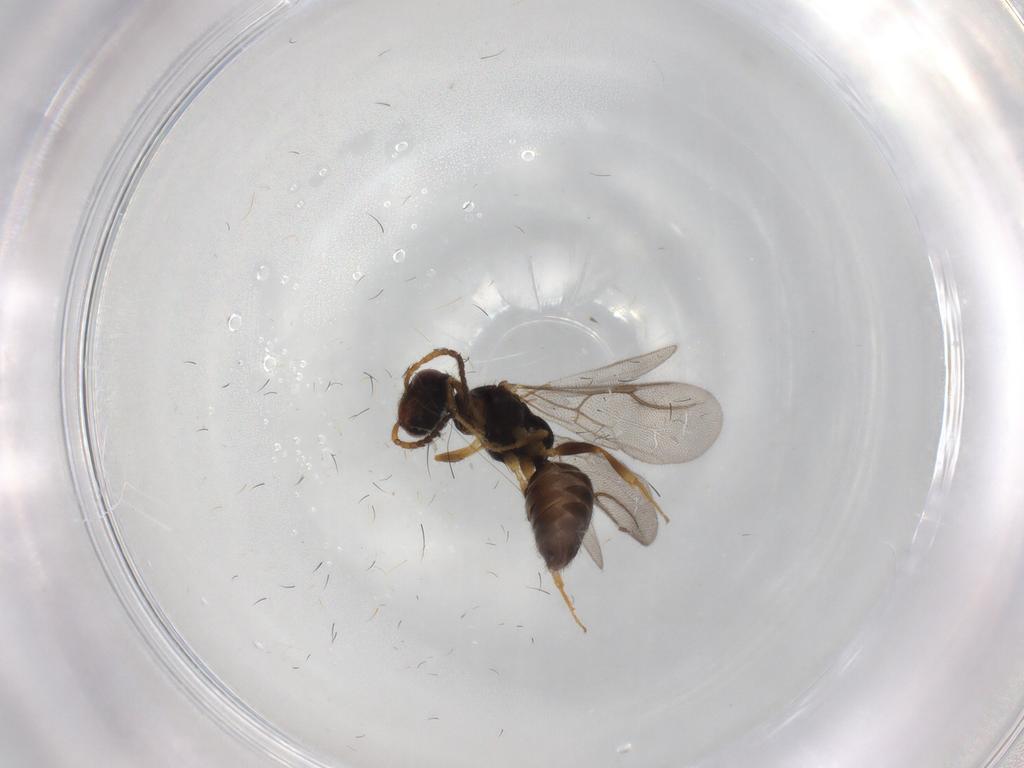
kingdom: Animalia
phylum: Arthropoda
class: Insecta
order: Hymenoptera
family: Bethylidae
